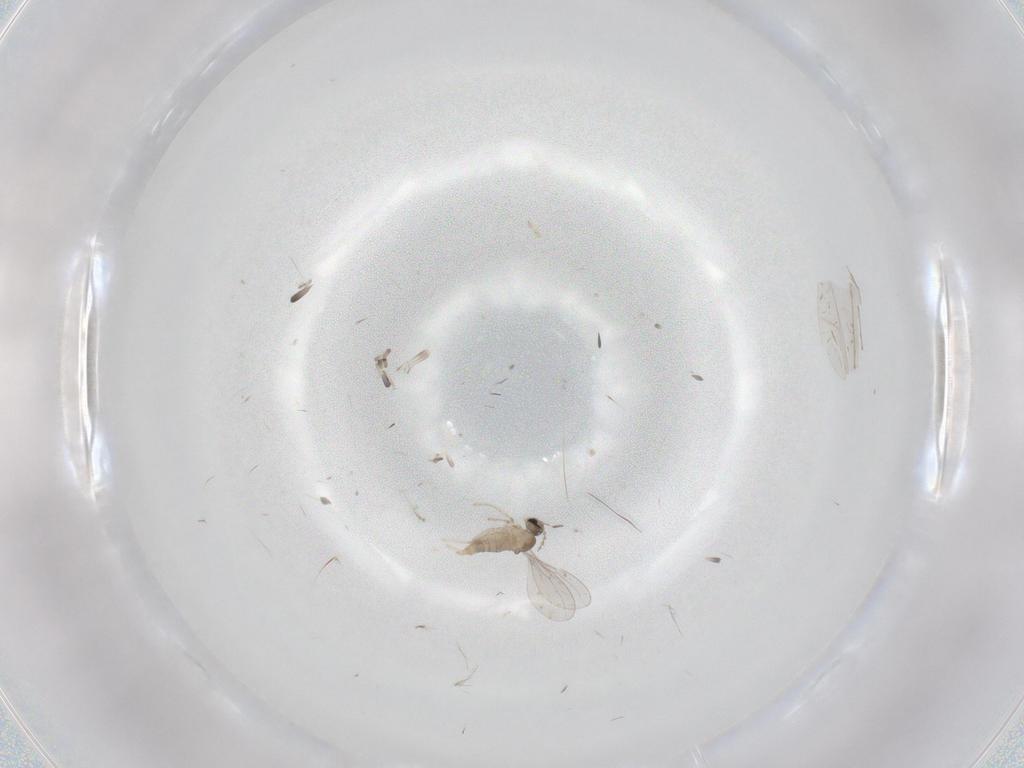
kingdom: Animalia
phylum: Arthropoda
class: Insecta
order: Diptera
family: Cecidomyiidae
